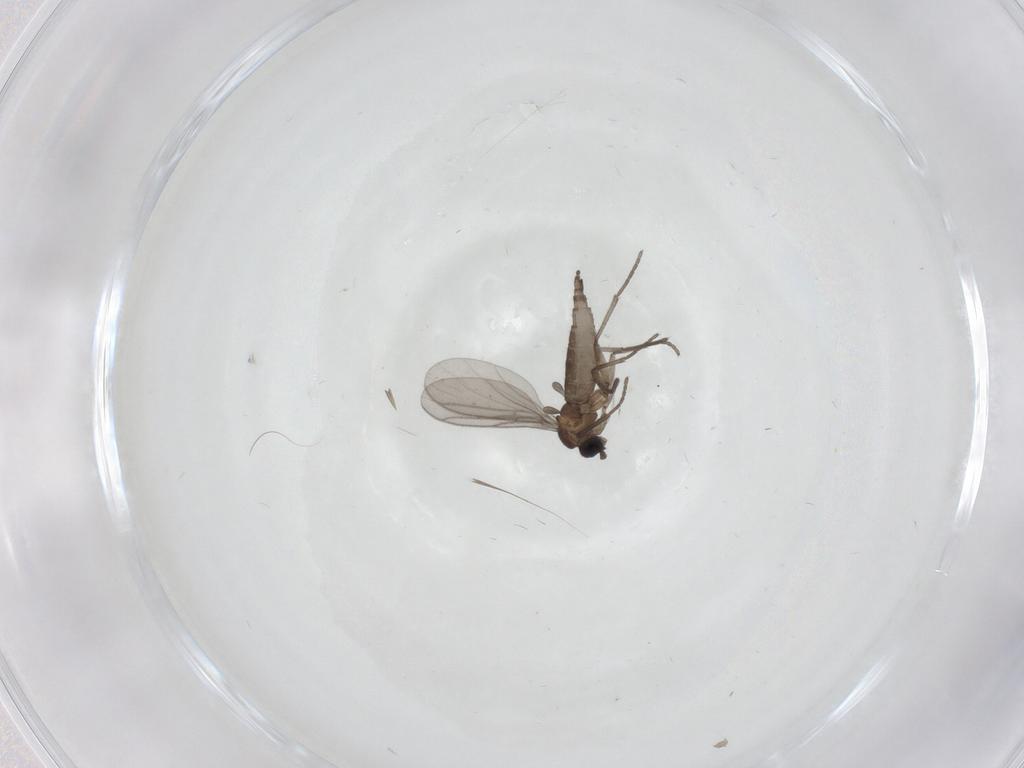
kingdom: Animalia
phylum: Arthropoda
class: Insecta
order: Diptera
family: Phoridae
